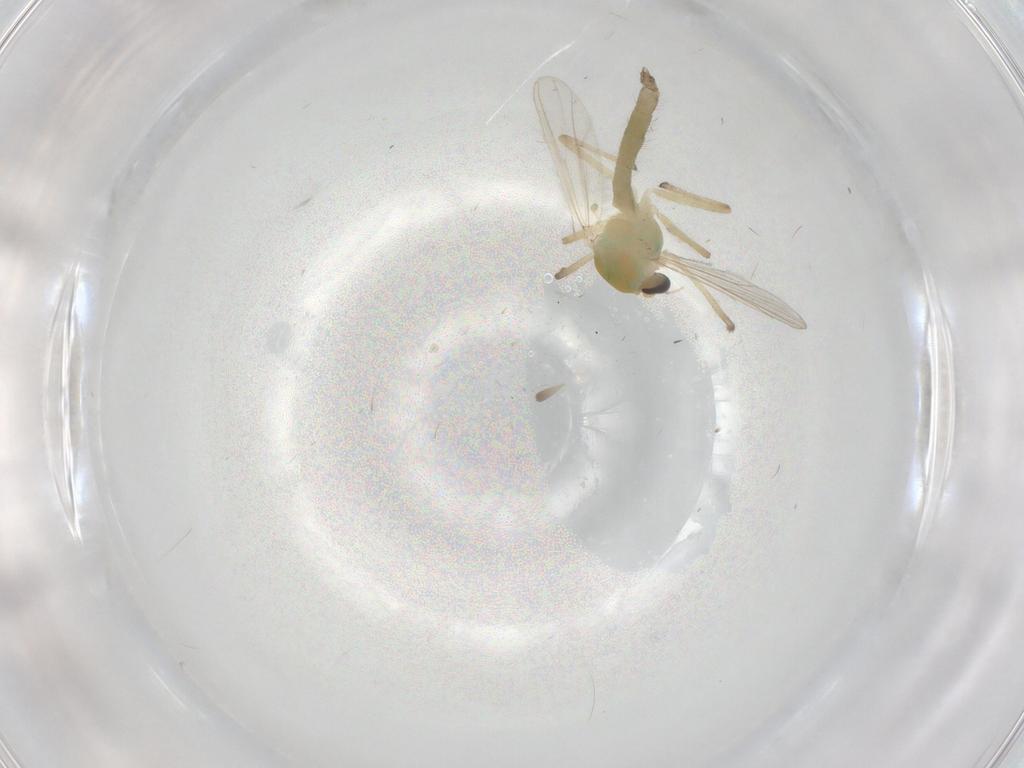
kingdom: Animalia
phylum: Arthropoda
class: Insecta
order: Diptera
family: Chironomidae
